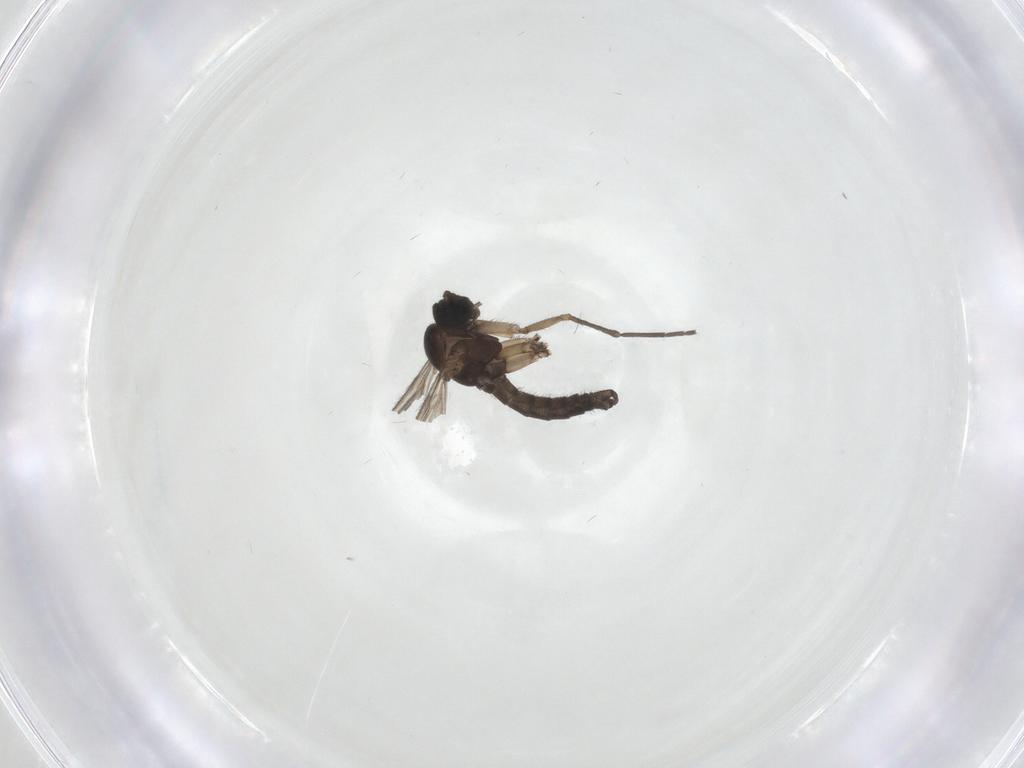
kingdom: Animalia
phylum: Arthropoda
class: Insecta
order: Diptera
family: Sciaridae
